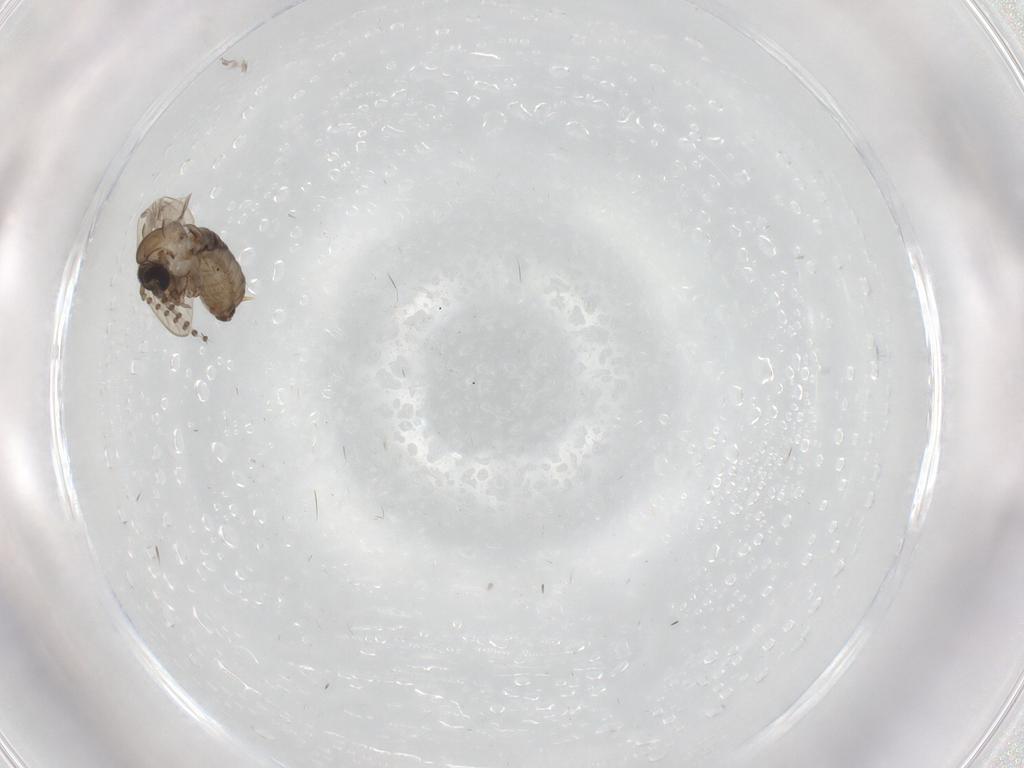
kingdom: Animalia
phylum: Arthropoda
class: Insecta
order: Diptera
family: Psychodidae
